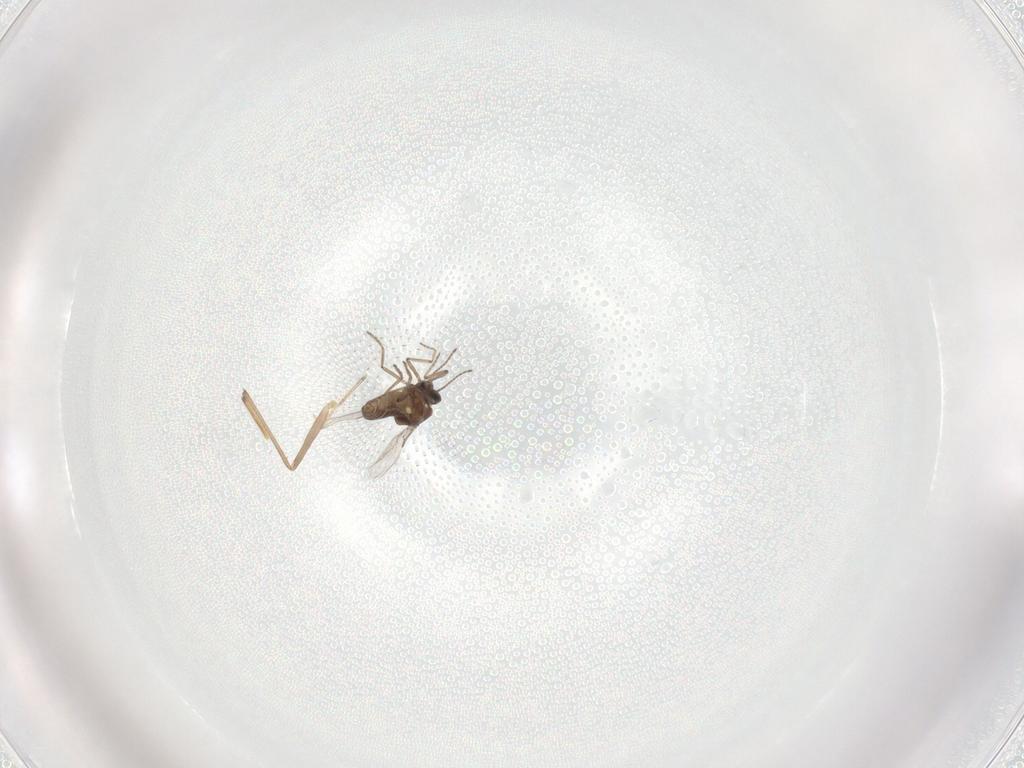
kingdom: Animalia
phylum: Arthropoda
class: Insecta
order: Diptera
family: Chironomidae
